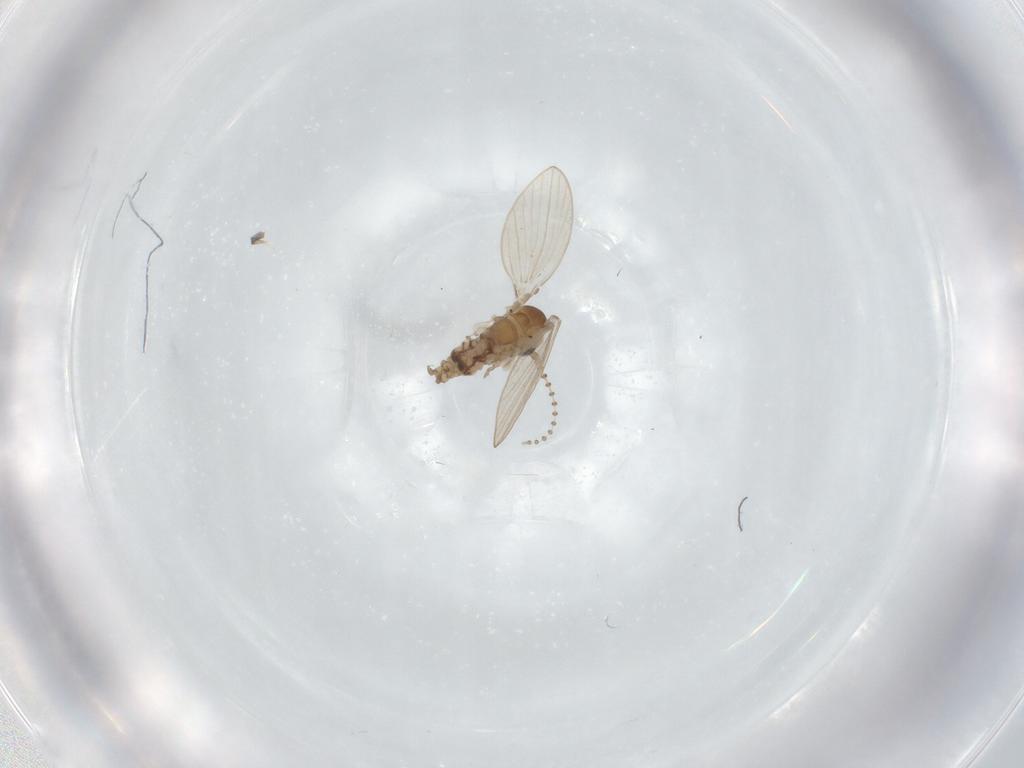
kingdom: Animalia
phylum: Arthropoda
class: Insecta
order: Diptera
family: Psychodidae
